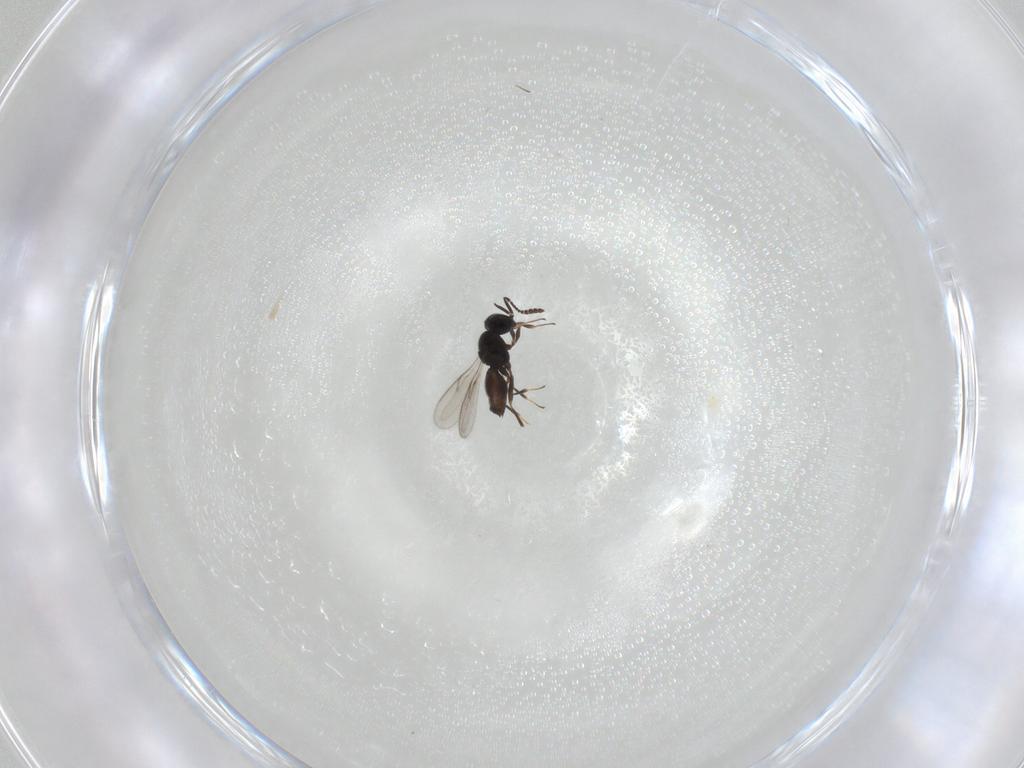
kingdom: Animalia
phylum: Arthropoda
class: Insecta
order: Hymenoptera
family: Scelionidae
